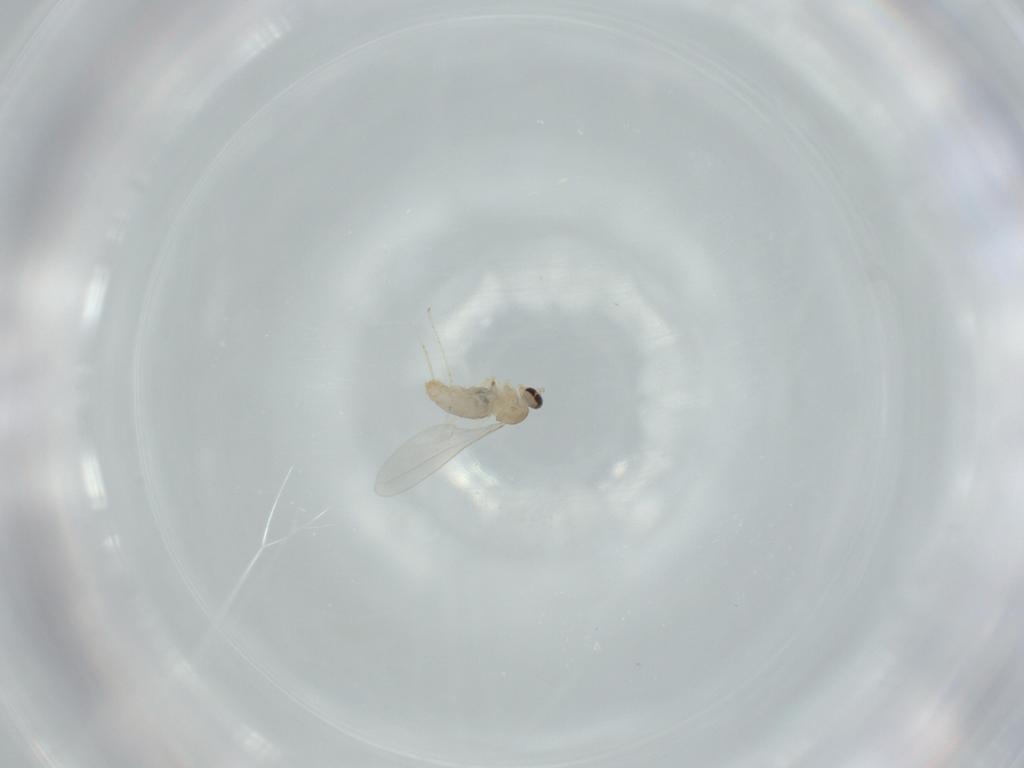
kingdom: Animalia
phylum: Arthropoda
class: Insecta
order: Diptera
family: Cecidomyiidae
